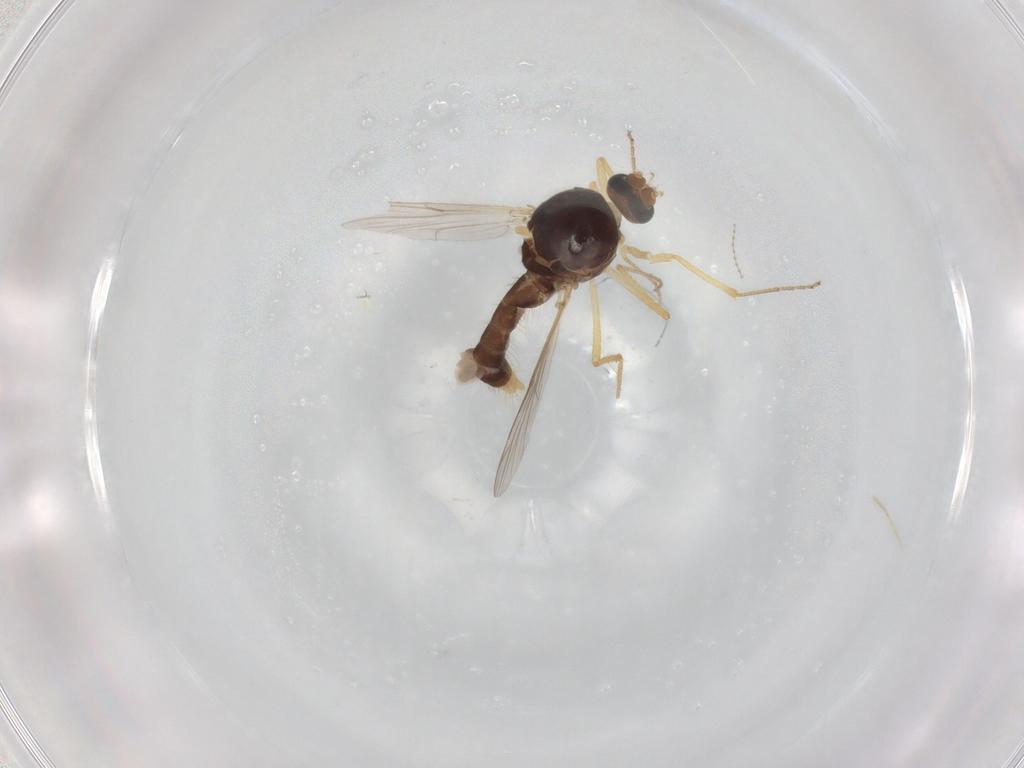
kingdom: Animalia
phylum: Arthropoda
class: Insecta
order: Diptera
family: Ceratopogonidae
